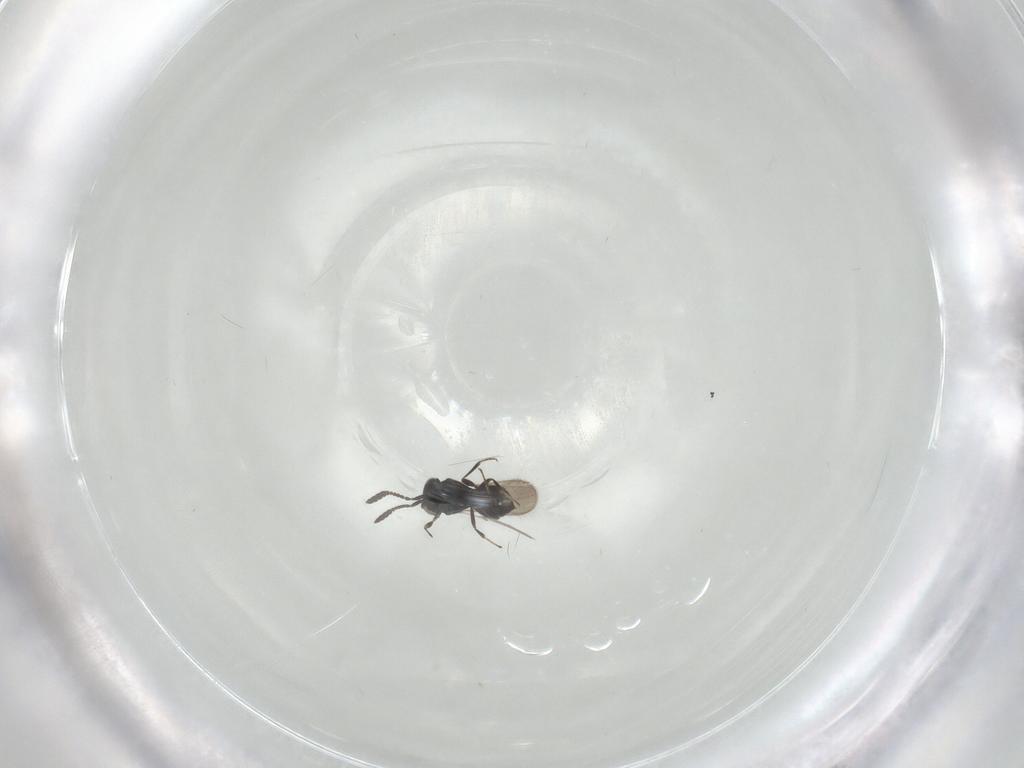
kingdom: Animalia
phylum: Arthropoda
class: Insecta
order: Hymenoptera
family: Scelionidae
